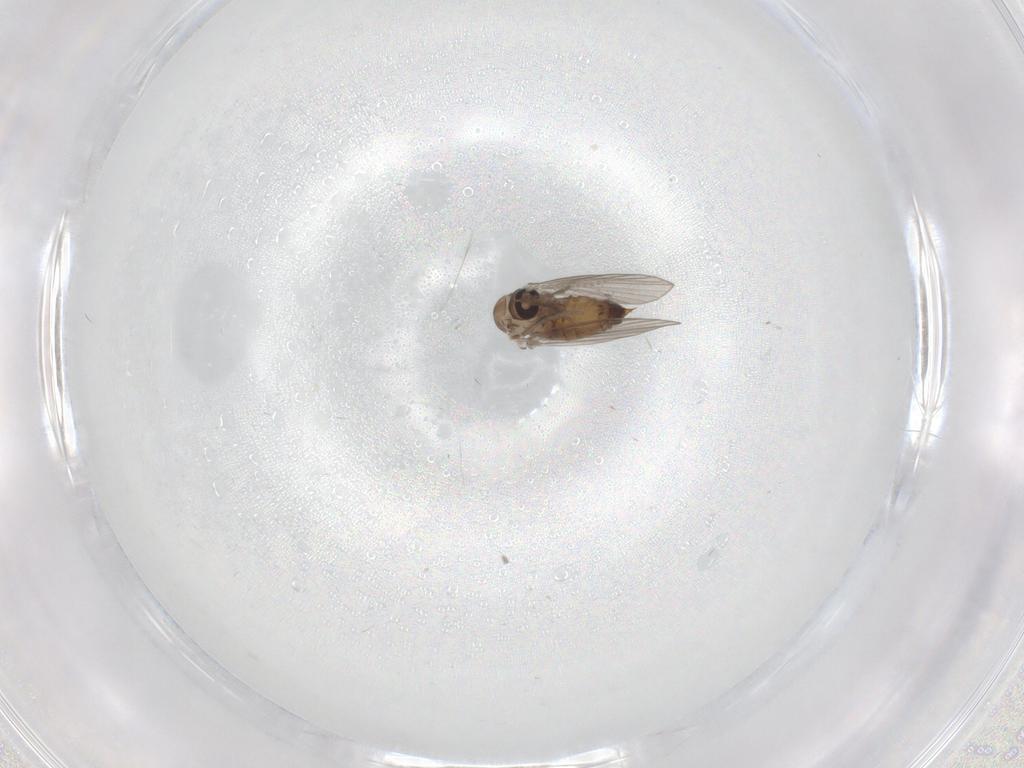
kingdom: Animalia
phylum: Arthropoda
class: Insecta
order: Diptera
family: Psychodidae
